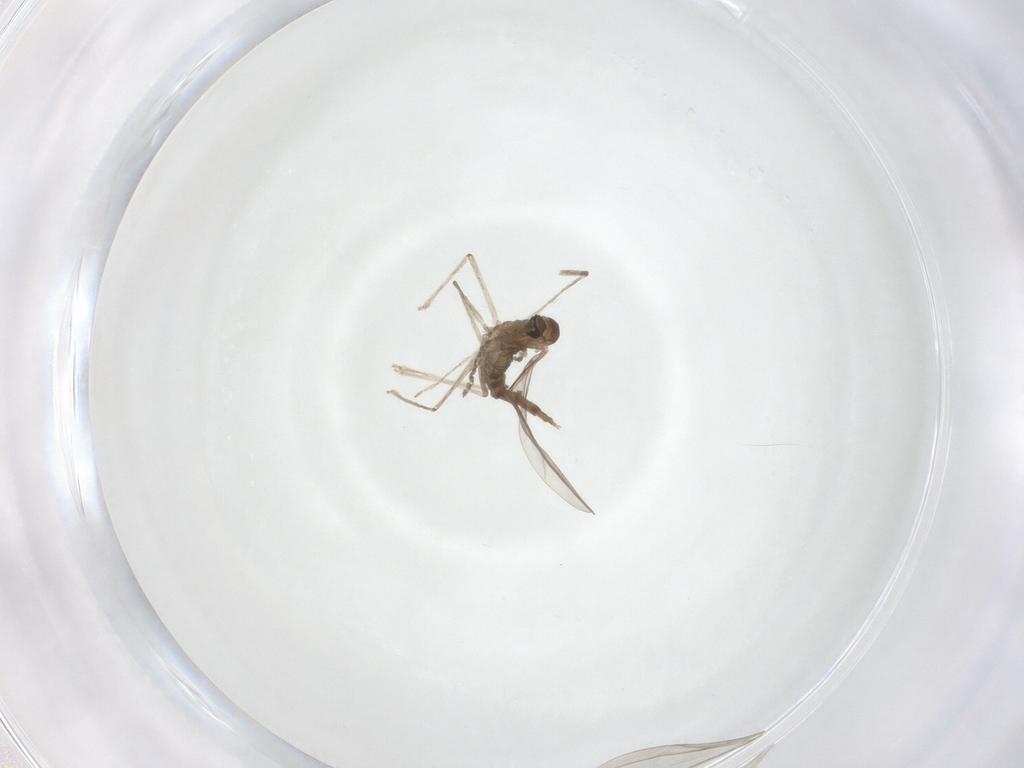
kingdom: Animalia
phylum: Arthropoda
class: Insecta
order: Diptera
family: Cecidomyiidae
